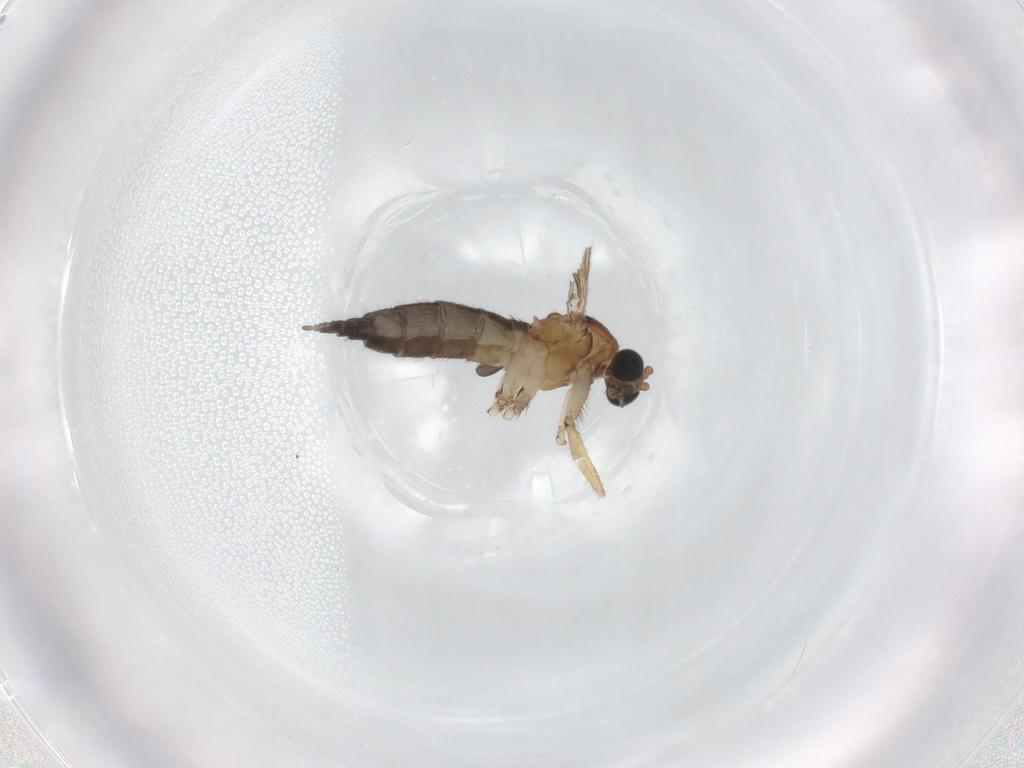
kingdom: Animalia
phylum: Arthropoda
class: Insecta
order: Diptera
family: Sciaridae
